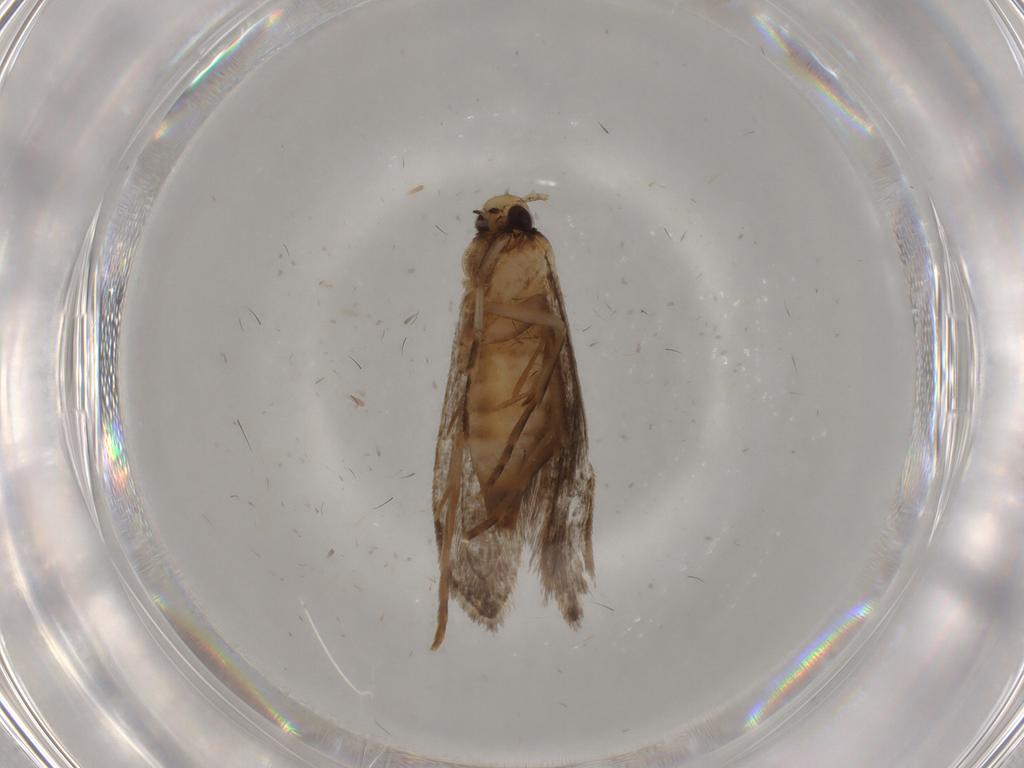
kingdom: Animalia
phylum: Arthropoda
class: Insecta
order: Lepidoptera
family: Tineidae
